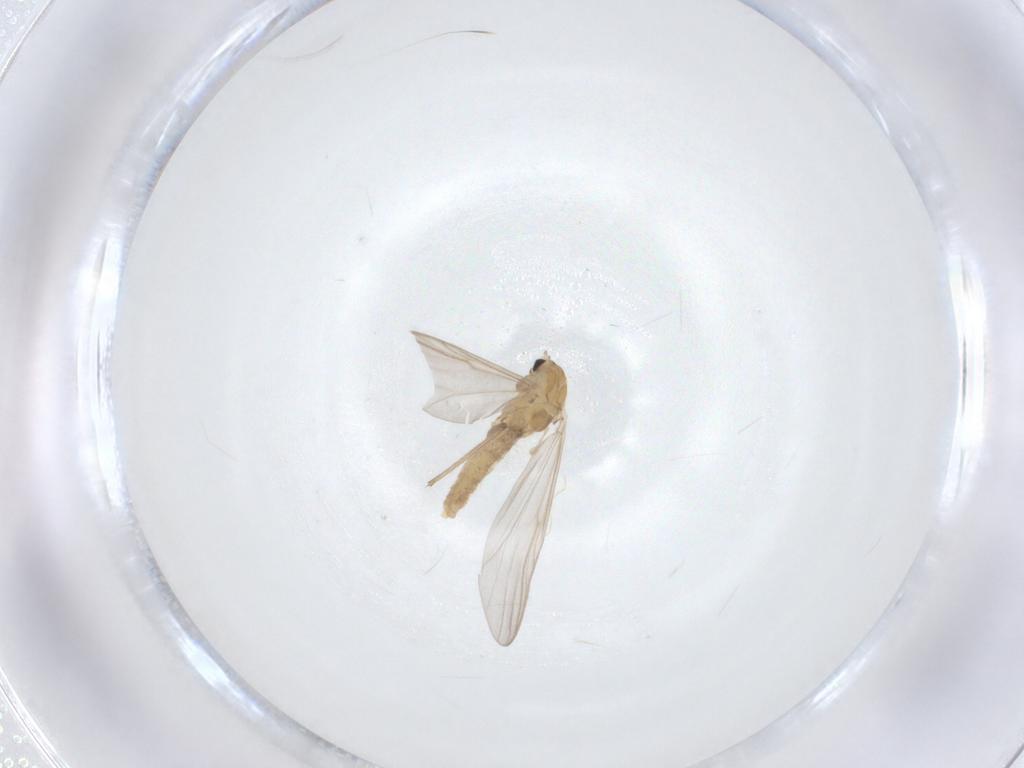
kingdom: Animalia
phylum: Arthropoda
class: Insecta
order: Diptera
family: Chironomidae
